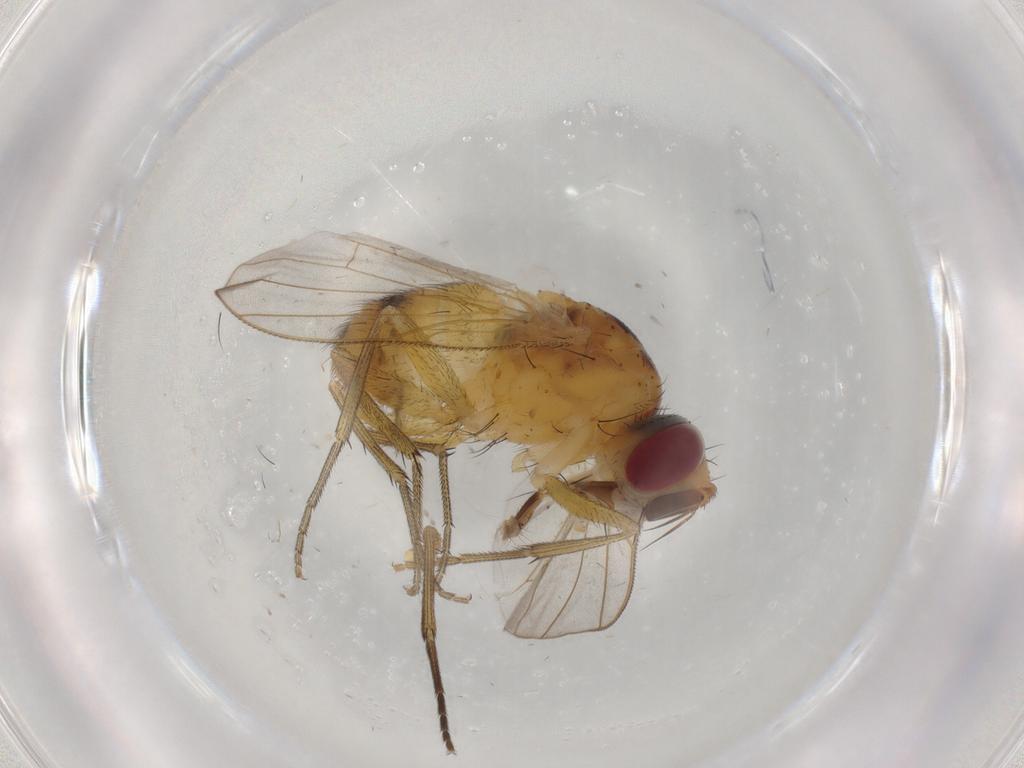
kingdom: Animalia
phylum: Arthropoda
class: Insecta
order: Diptera
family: Muscidae
